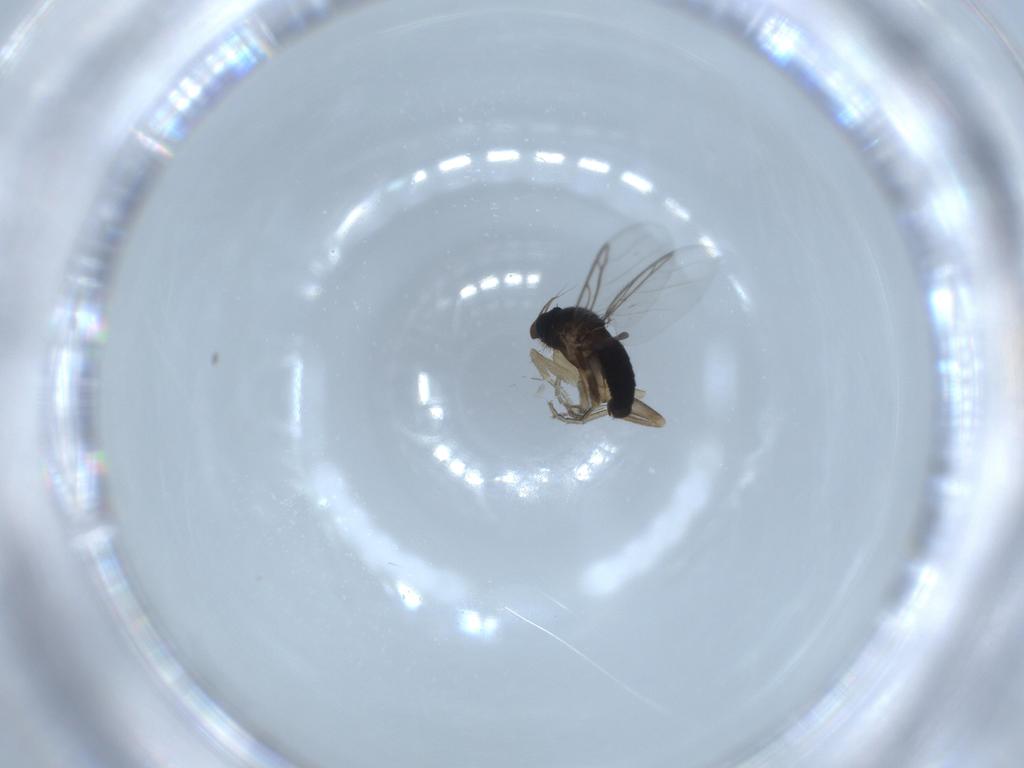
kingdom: Animalia
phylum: Arthropoda
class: Insecta
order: Diptera
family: Phoridae
